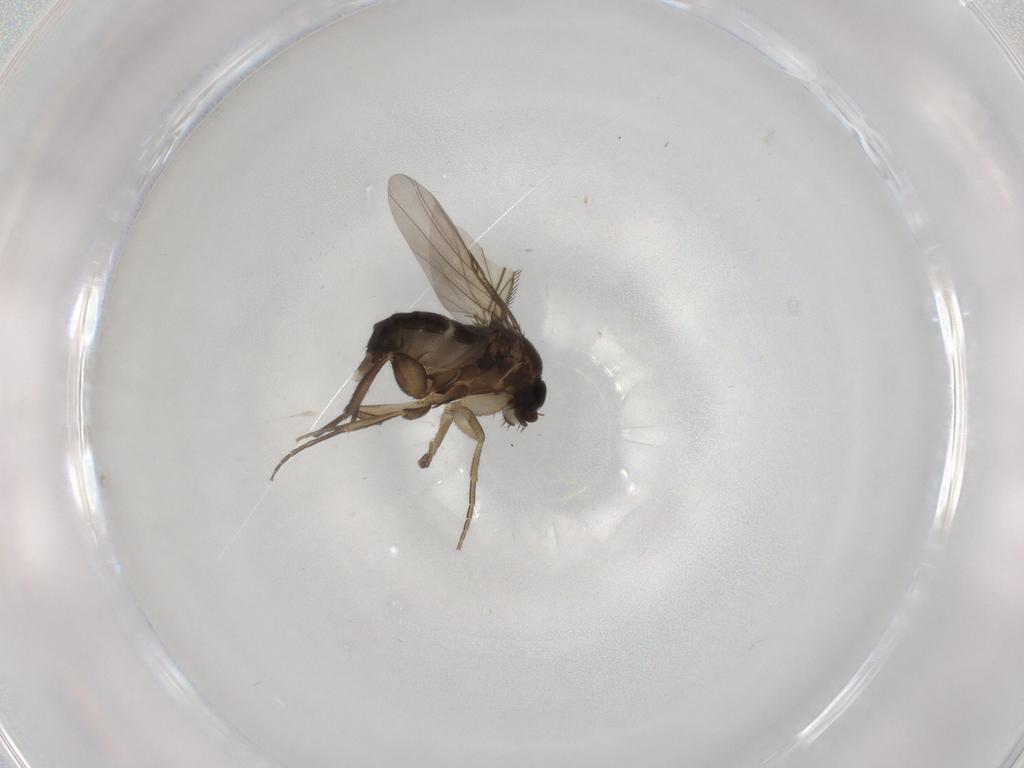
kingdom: Animalia
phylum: Arthropoda
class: Insecta
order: Diptera
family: Phoridae
